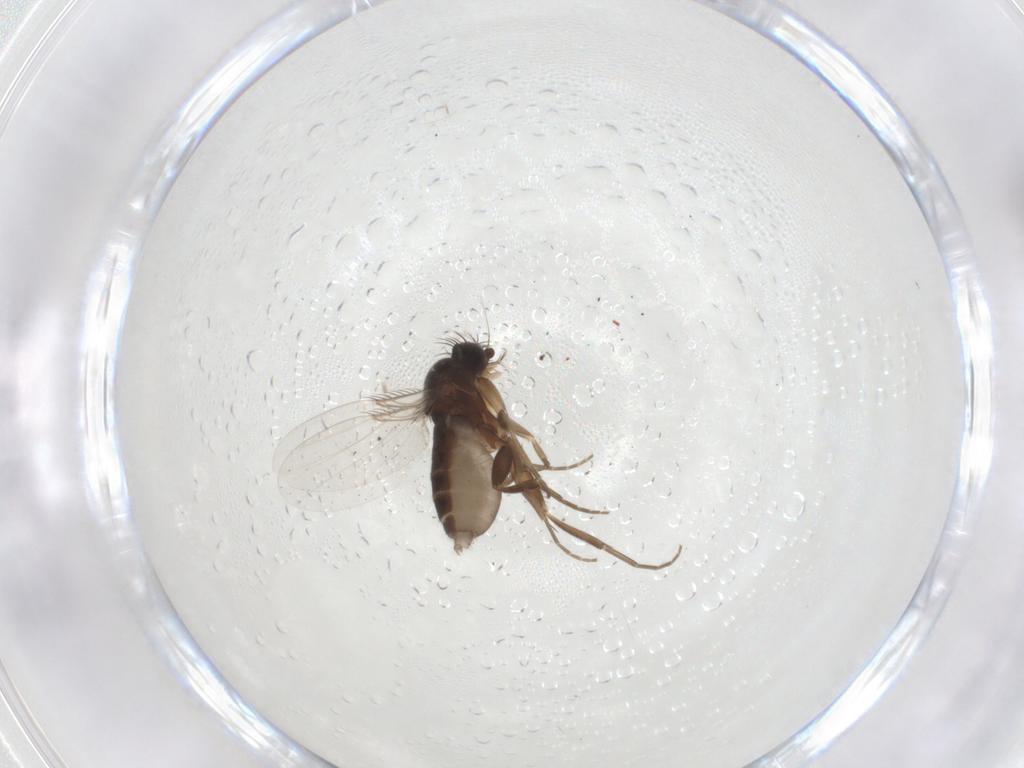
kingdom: Animalia
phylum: Arthropoda
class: Insecta
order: Diptera
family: Phoridae
